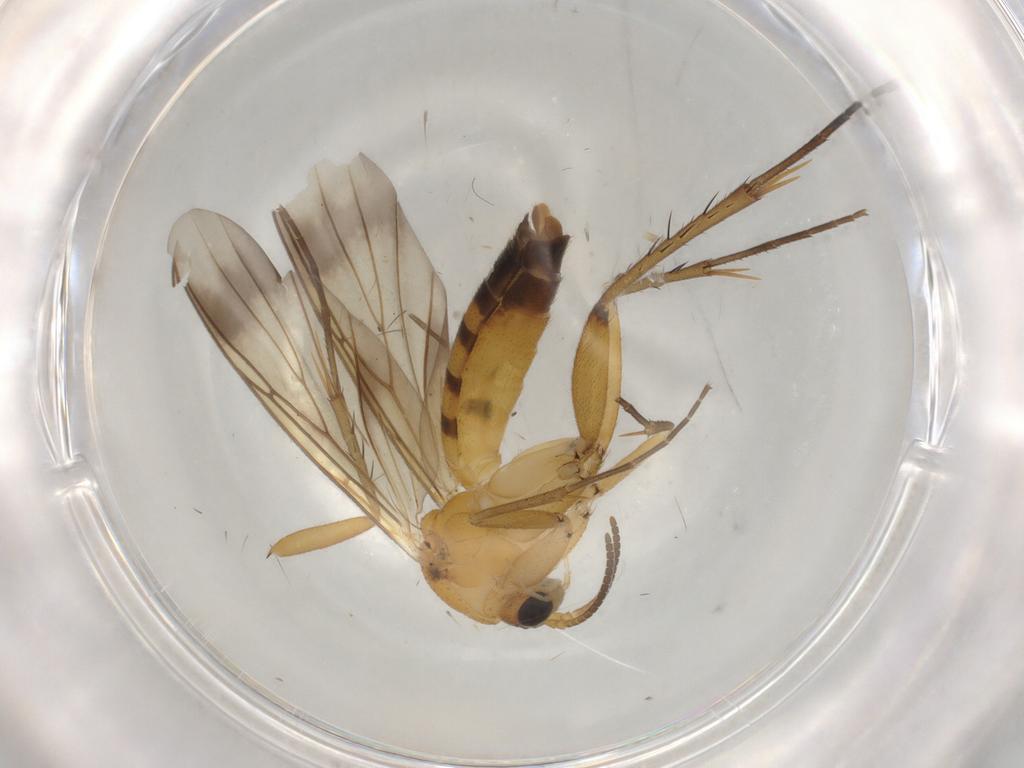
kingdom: Animalia
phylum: Arthropoda
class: Insecta
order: Diptera
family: Mycetophilidae
